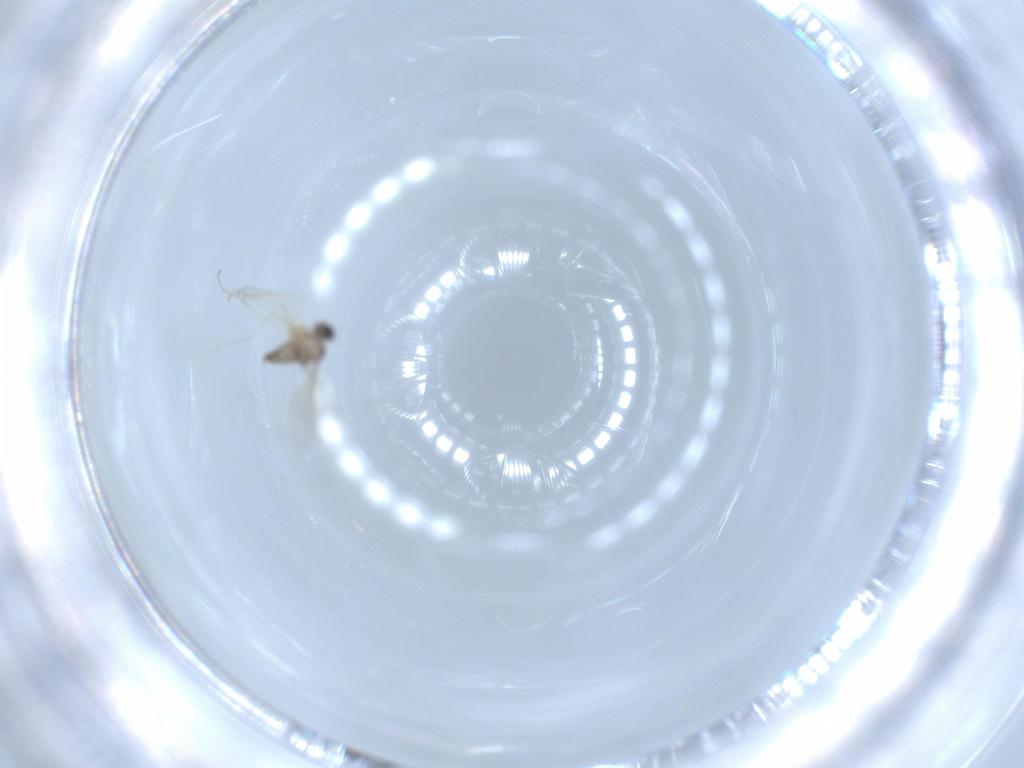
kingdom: Animalia
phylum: Arthropoda
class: Insecta
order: Diptera
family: Cecidomyiidae
